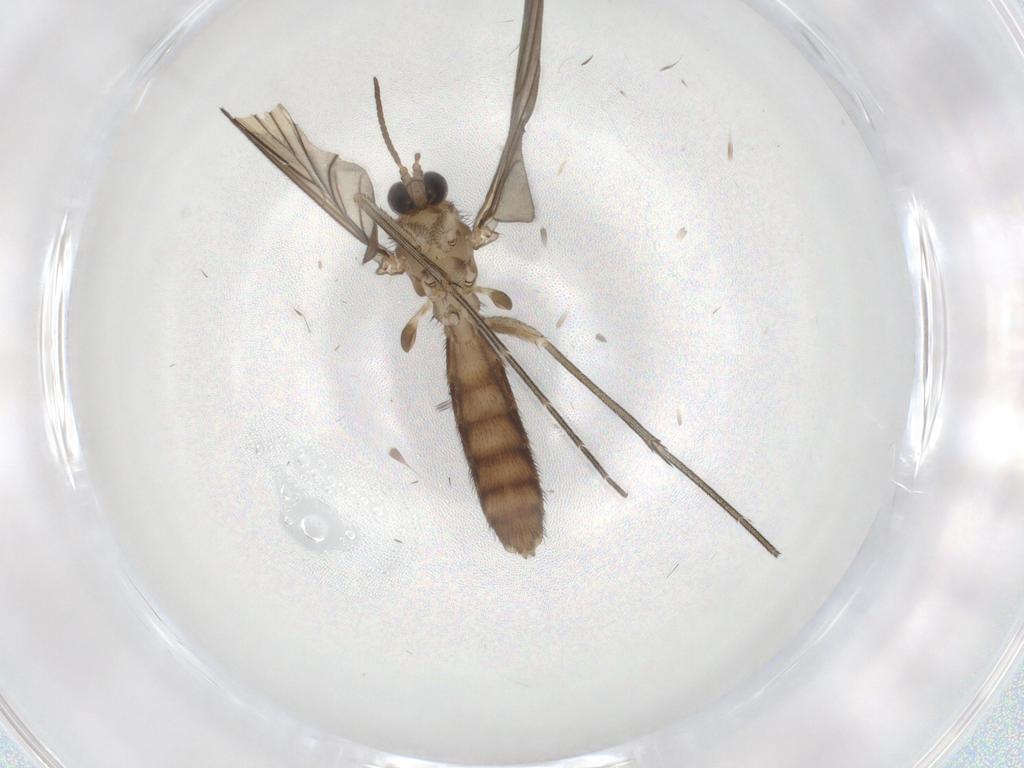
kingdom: Animalia
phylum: Arthropoda
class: Insecta
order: Diptera
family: Keroplatidae
